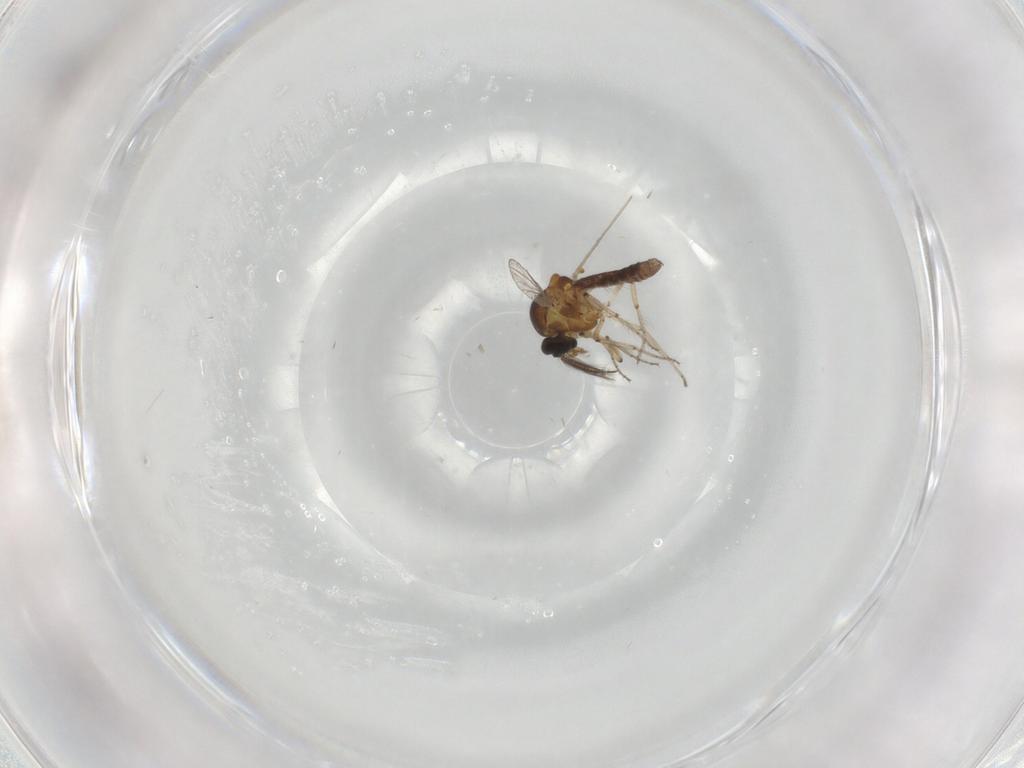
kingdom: Animalia
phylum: Arthropoda
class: Insecta
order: Diptera
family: Ceratopogonidae
